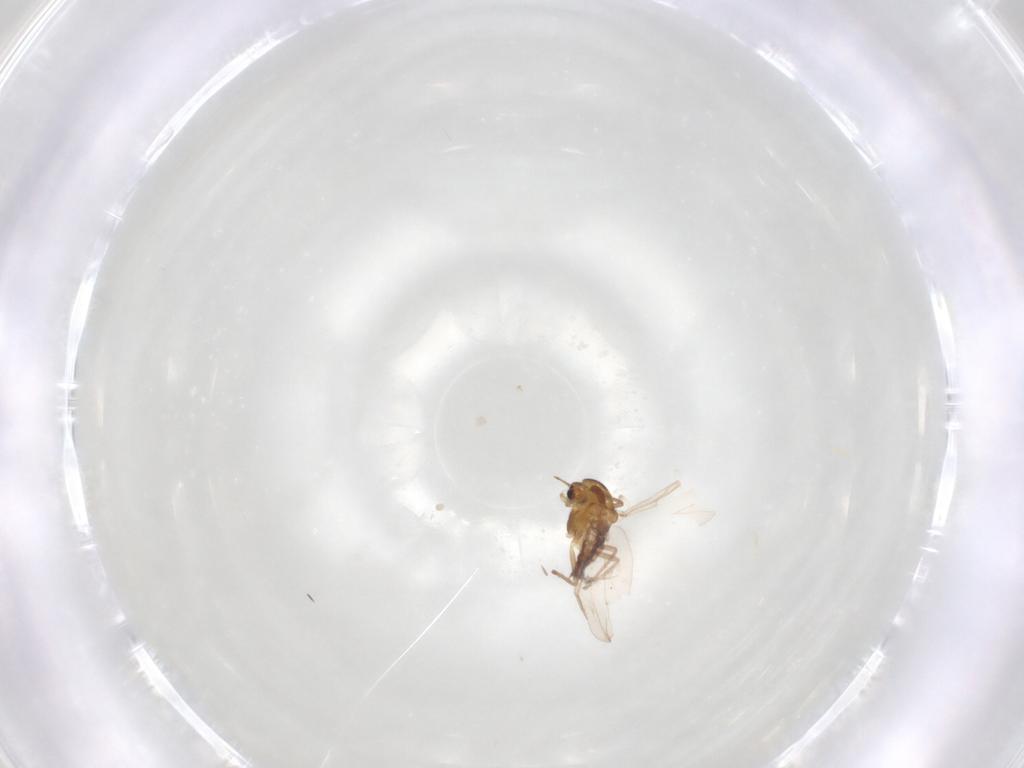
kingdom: Animalia
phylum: Arthropoda
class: Insecta
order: Diptera
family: Chironomidae
